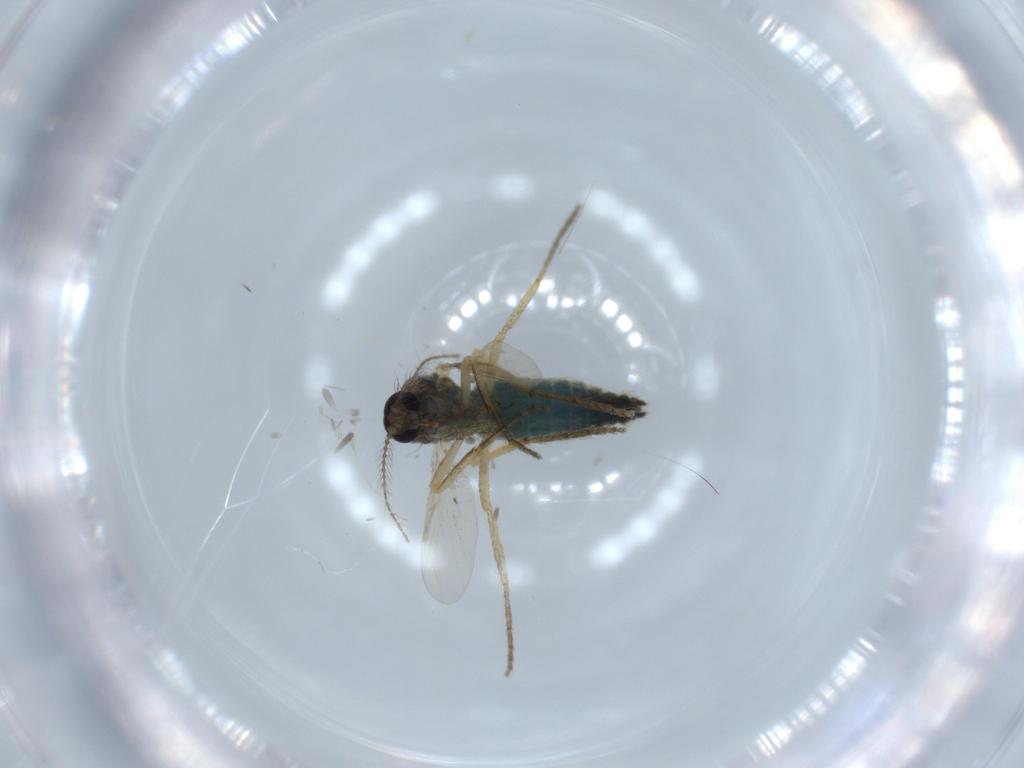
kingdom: Animalia
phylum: Arthropoda
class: Insecta
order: Diptera
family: Ceratopogonidae
